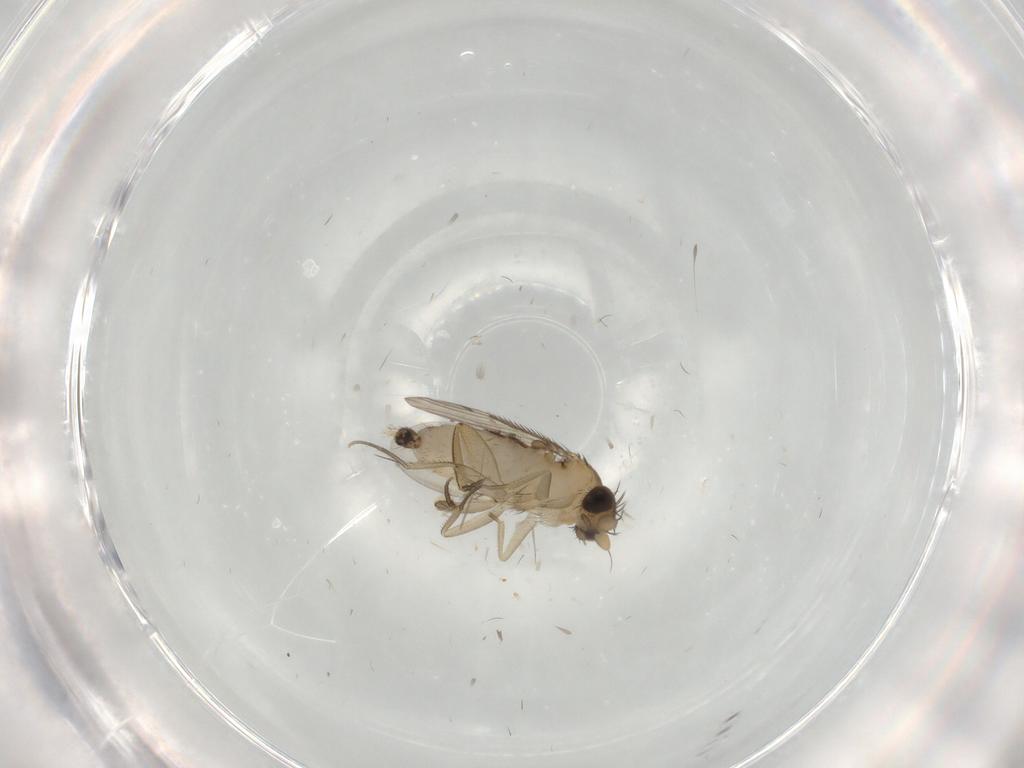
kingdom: Animalia
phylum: Arthropoda
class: Insecta
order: Diptera
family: Phoridae
